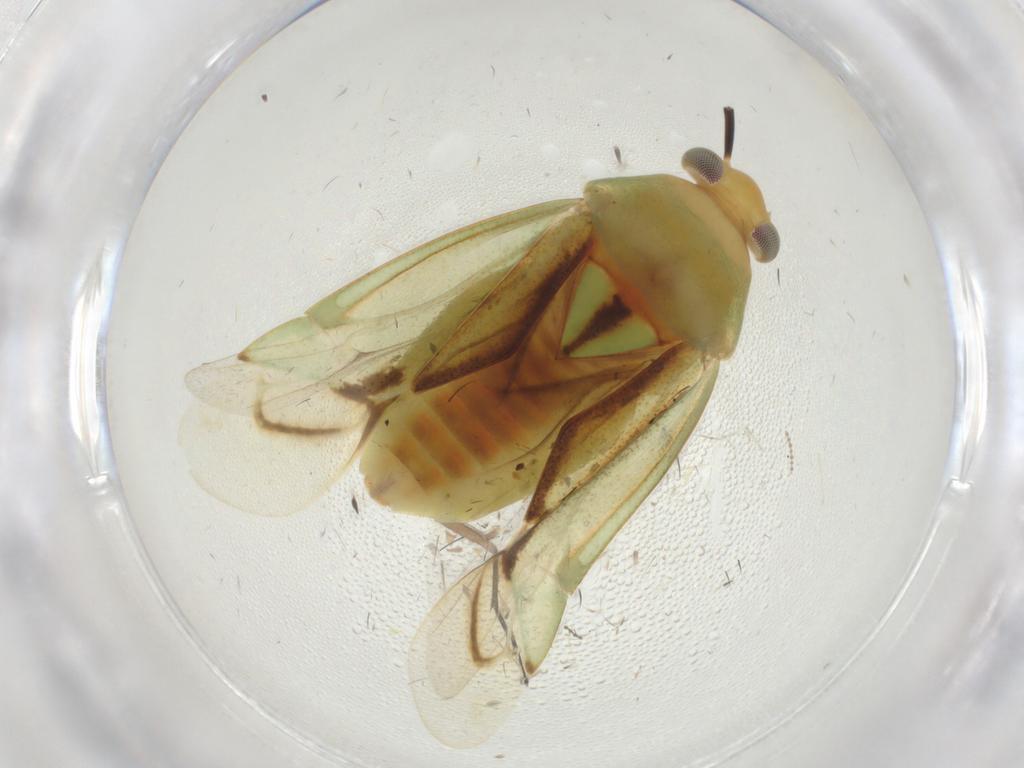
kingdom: Animalia
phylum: Arthropoda
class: Insecta
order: Hemiptera
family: Miridae
